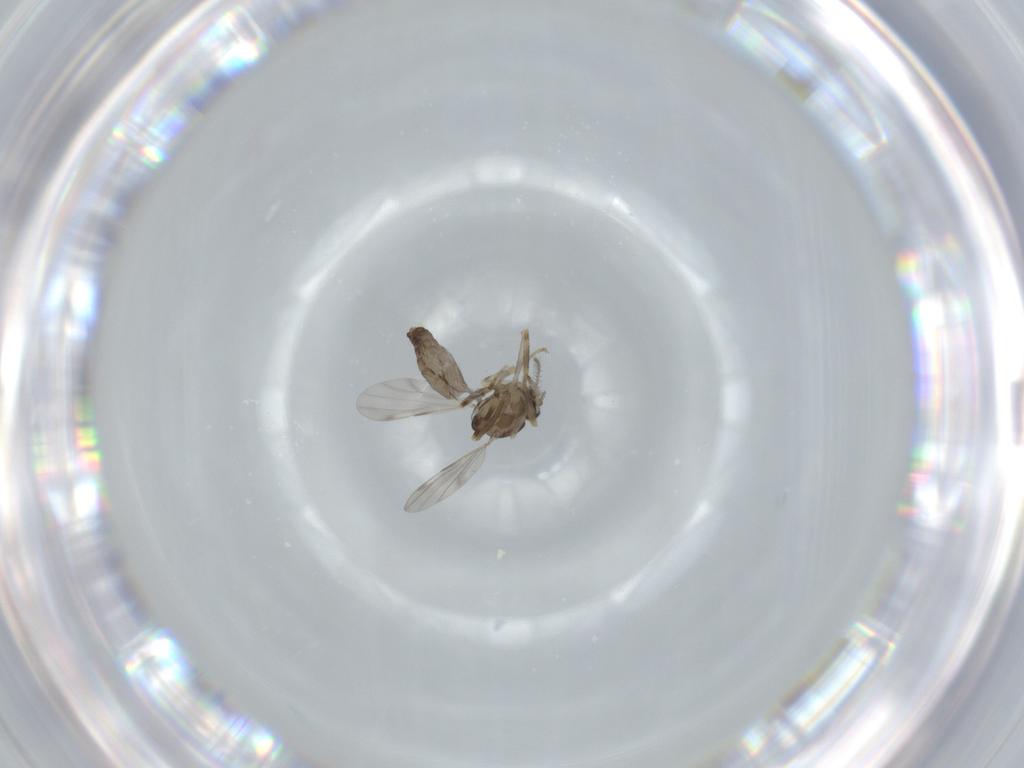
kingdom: Animalia
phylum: Arthropoda
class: Insecta
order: Diptera
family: Ceratopogonidae
